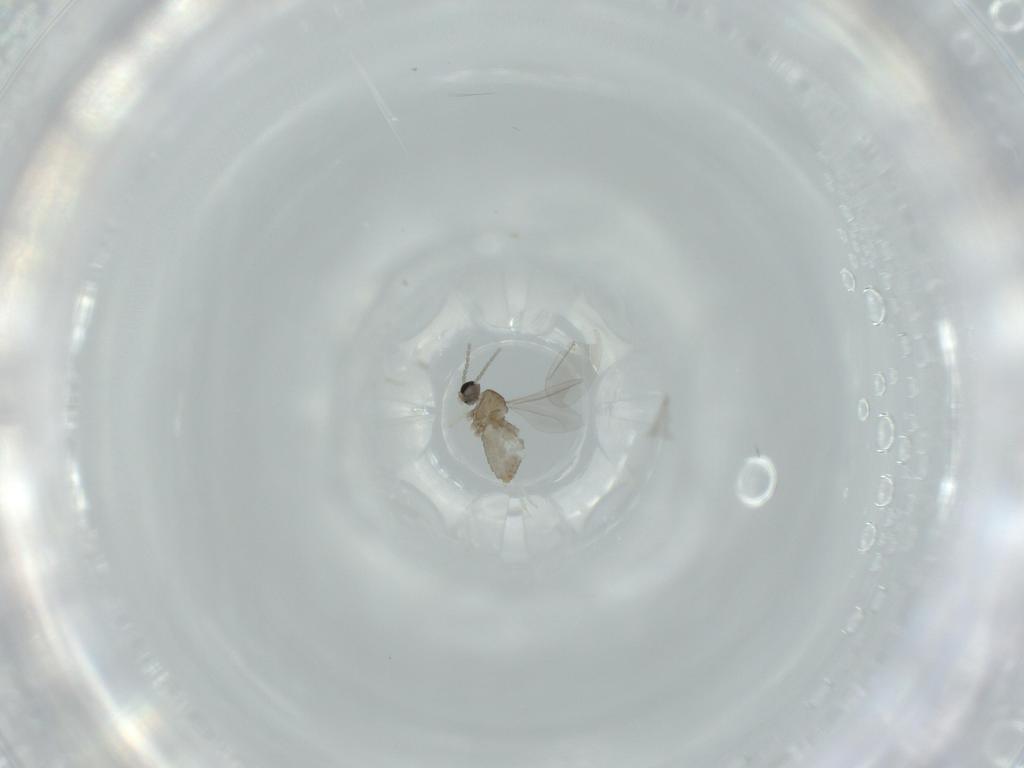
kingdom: Animalia
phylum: Arthropoda
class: Insecta
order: Diptera
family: Cecidomyiidae
